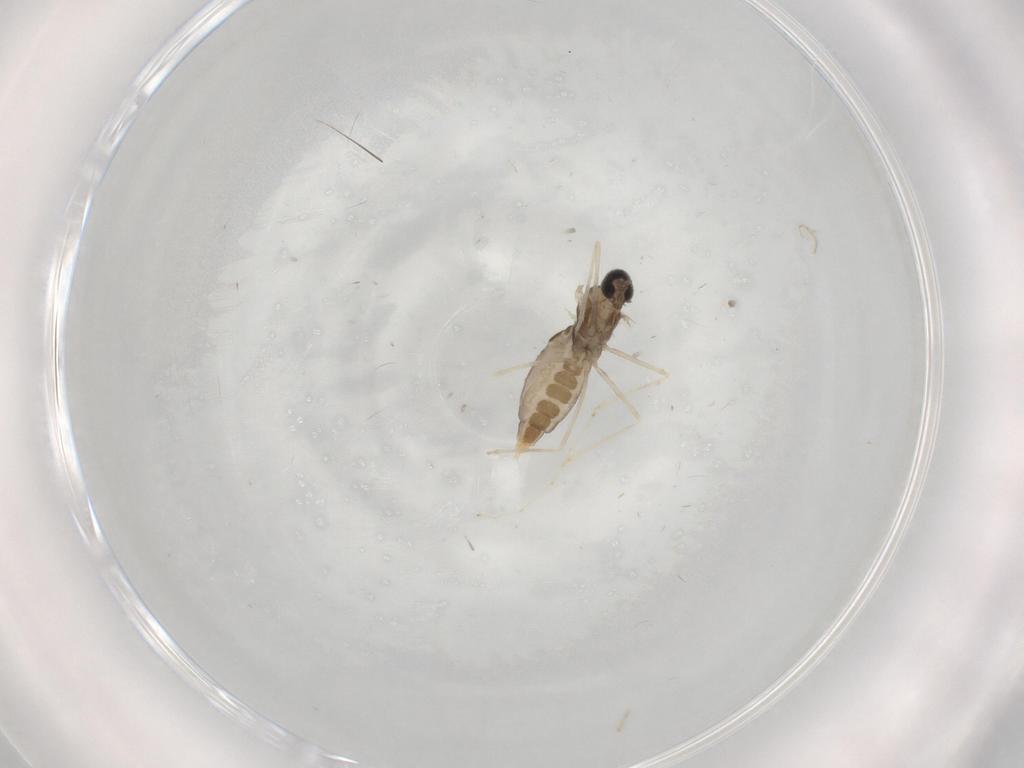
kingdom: Animalia
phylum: Arthropoda
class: Insecta
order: Diptera
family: Cecidomyiidae
